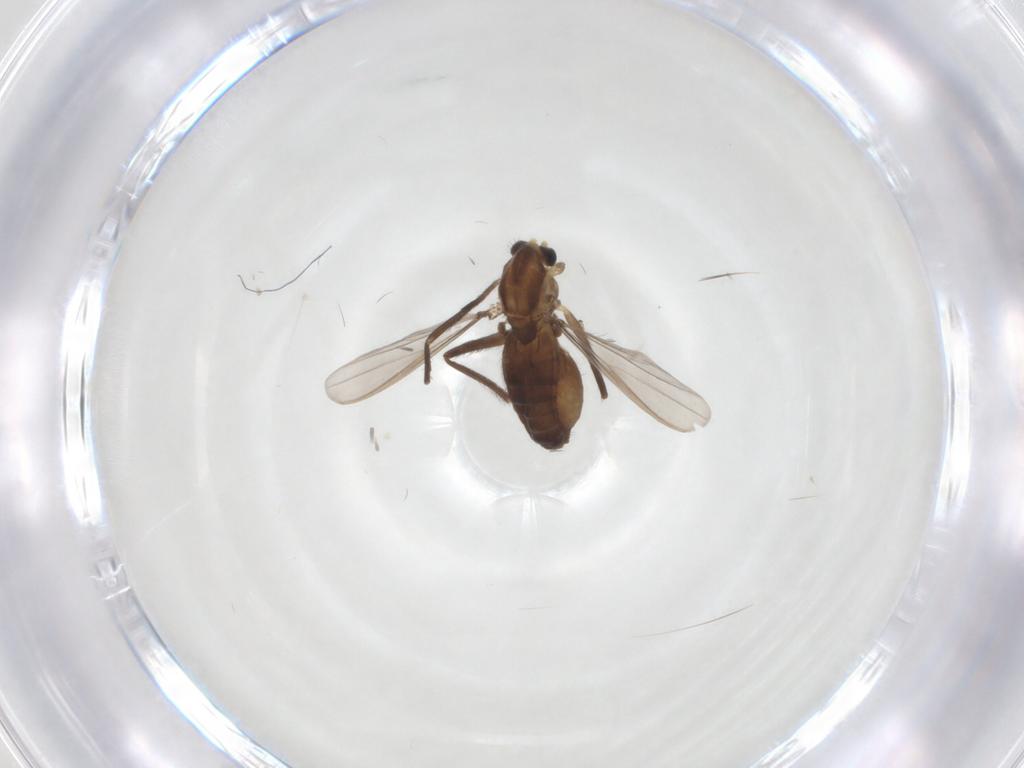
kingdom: Animalia
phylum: Arthropoda
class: Insecta
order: Diptera
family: Chironomidae
